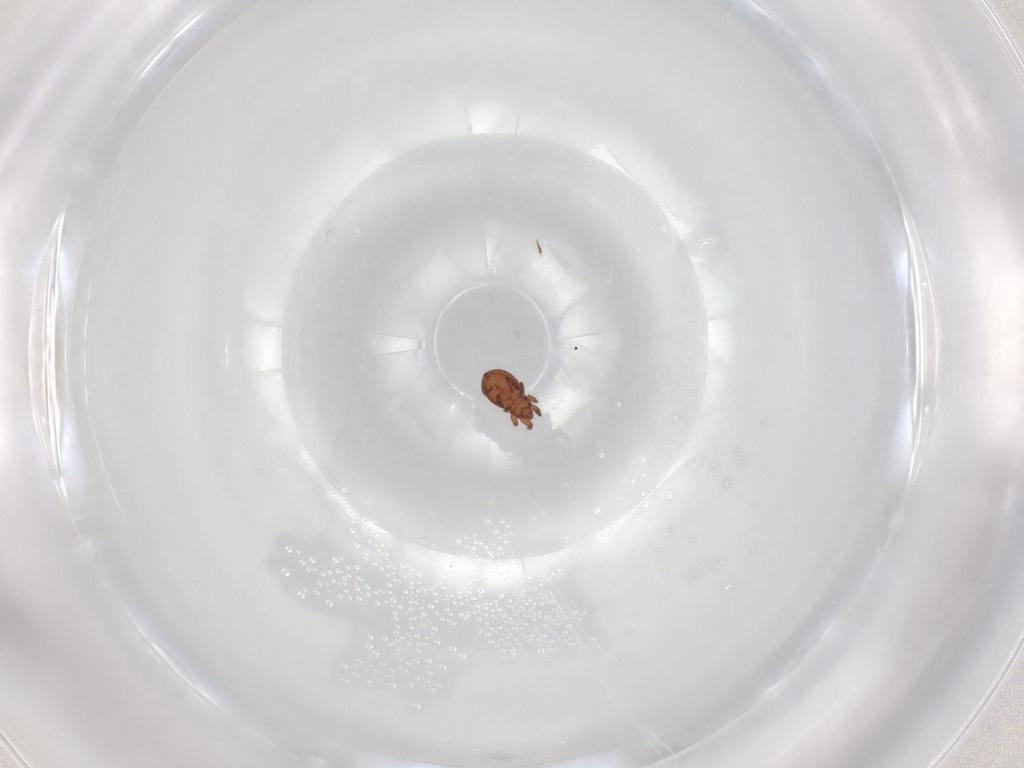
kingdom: Animalia
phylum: Arthropoda
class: Arachnida
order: Sarcoptiformes
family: Eremaeidae
